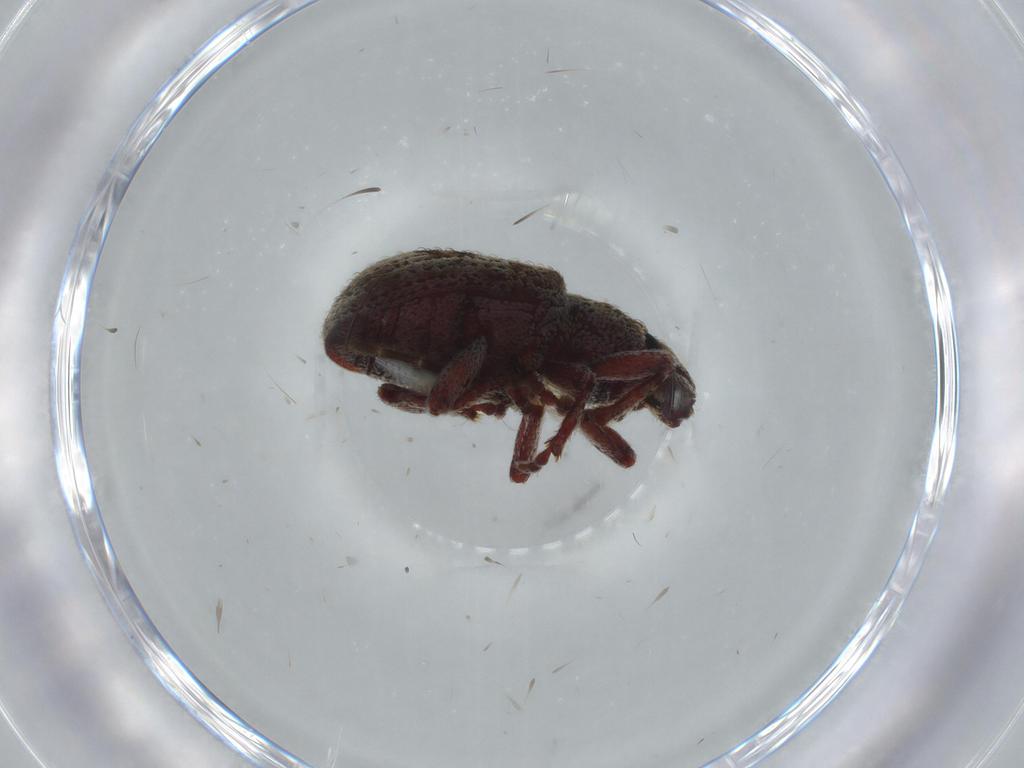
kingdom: Animalia
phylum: Arthropoda
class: Insecta
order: Coleoptera
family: Curculionidae
